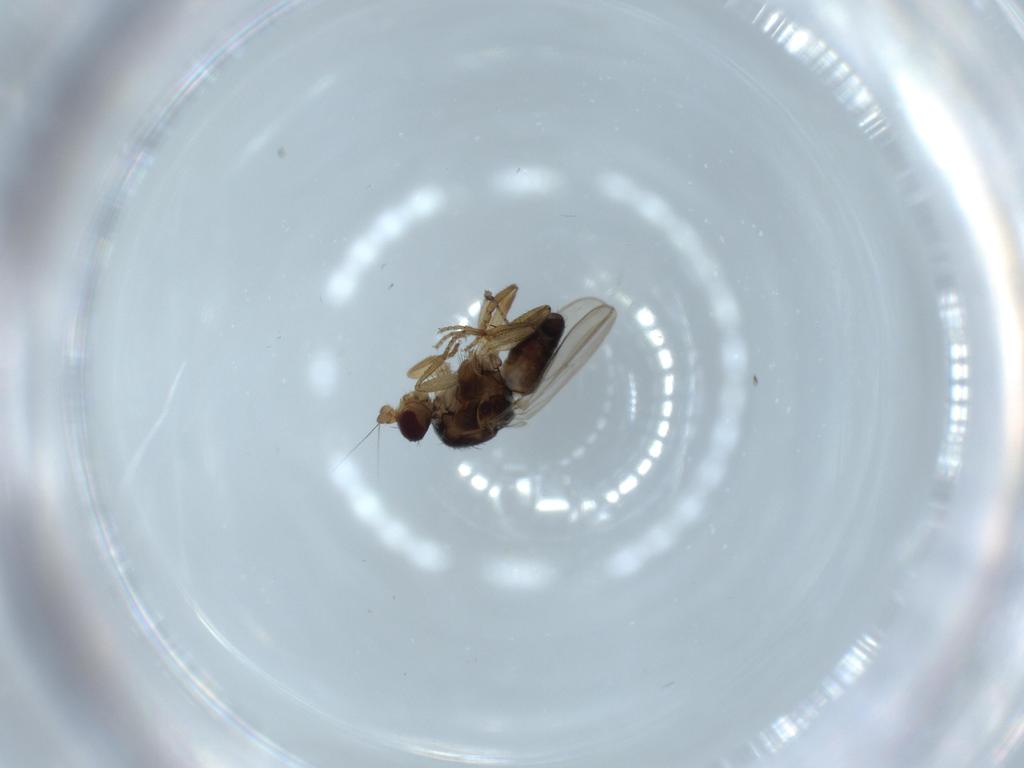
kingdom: Animalia
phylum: Arthropoda
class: Insecta
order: Diptera
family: Sphaeroceridae
